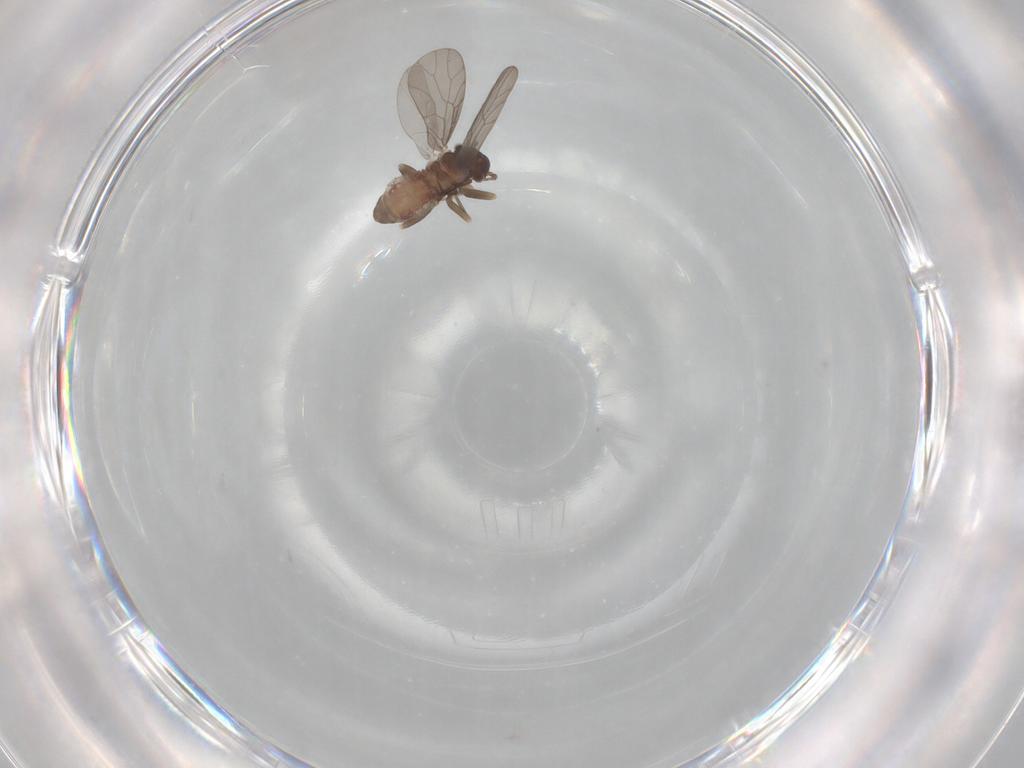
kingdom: Animalia
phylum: Arthropoda
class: Insecta
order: Psocodea
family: Lepidopsocidae
